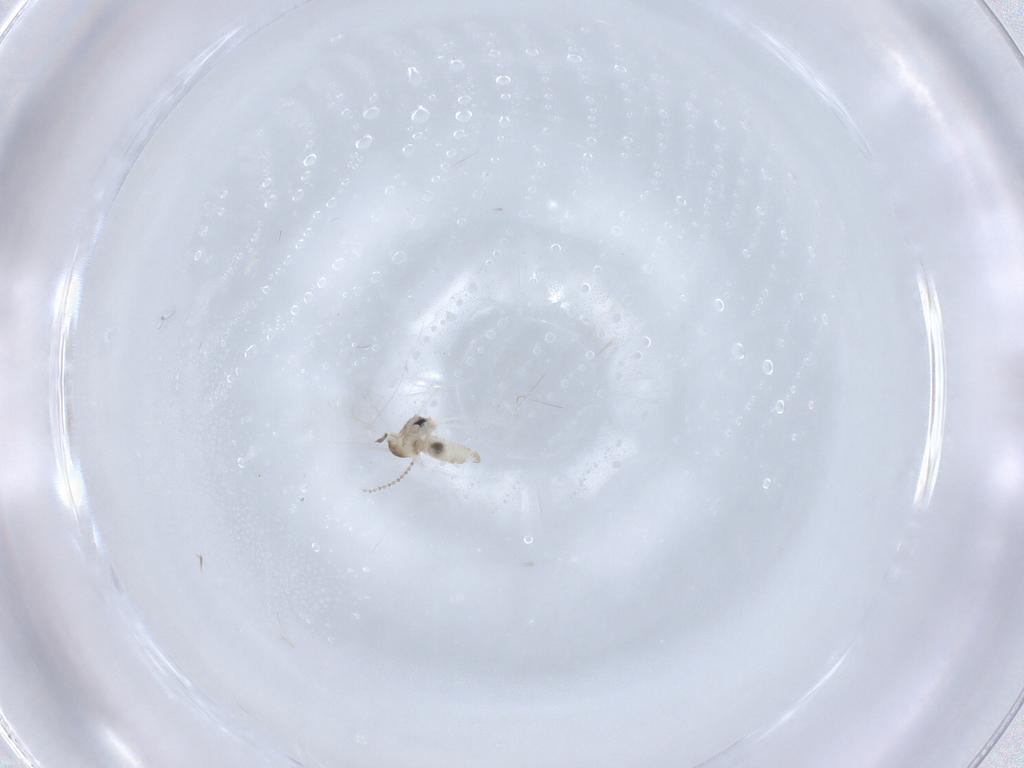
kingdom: Animalia
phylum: Arthropoda
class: Insecta
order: Diptera
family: Cecidomyiidae
